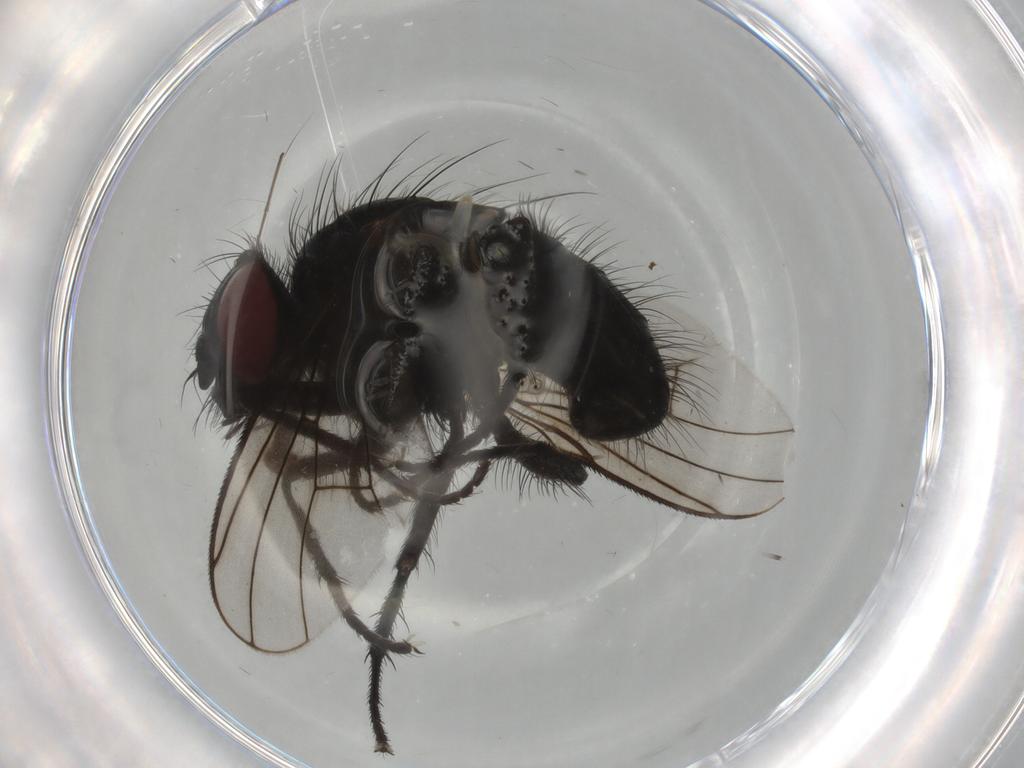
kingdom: Animalia
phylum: Arthropoda
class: Insecta
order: Diptera
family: Muscidae
